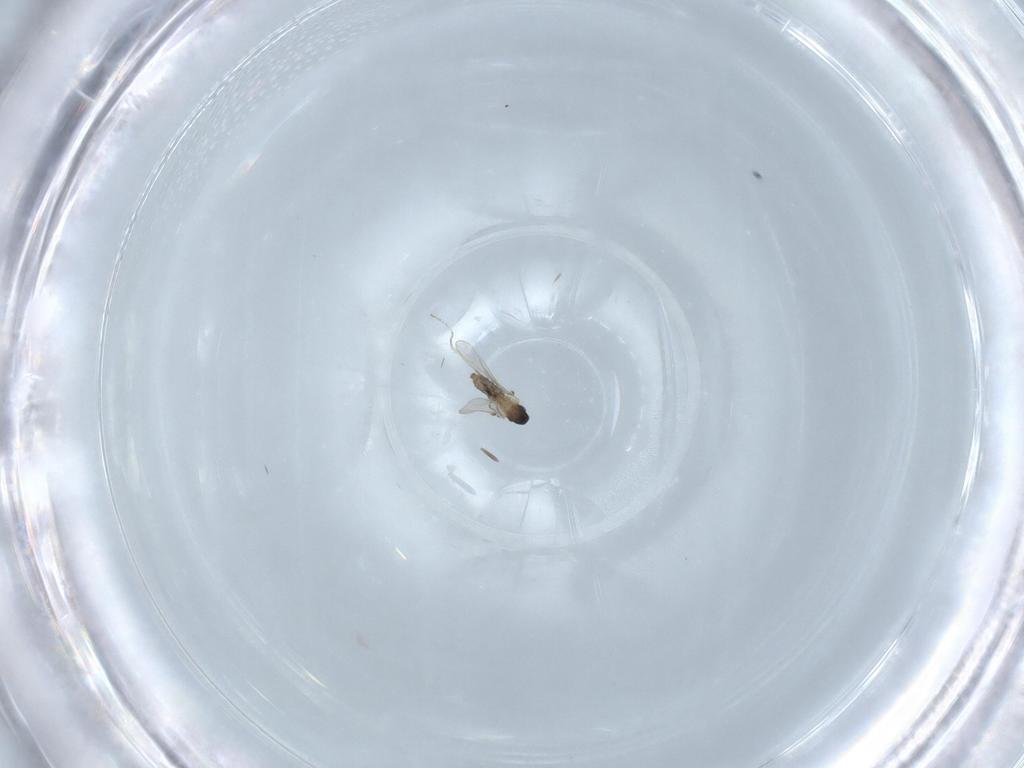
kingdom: Animalia
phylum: Arthropoda
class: Insecta
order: Diptera
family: Cecidomyiidae
